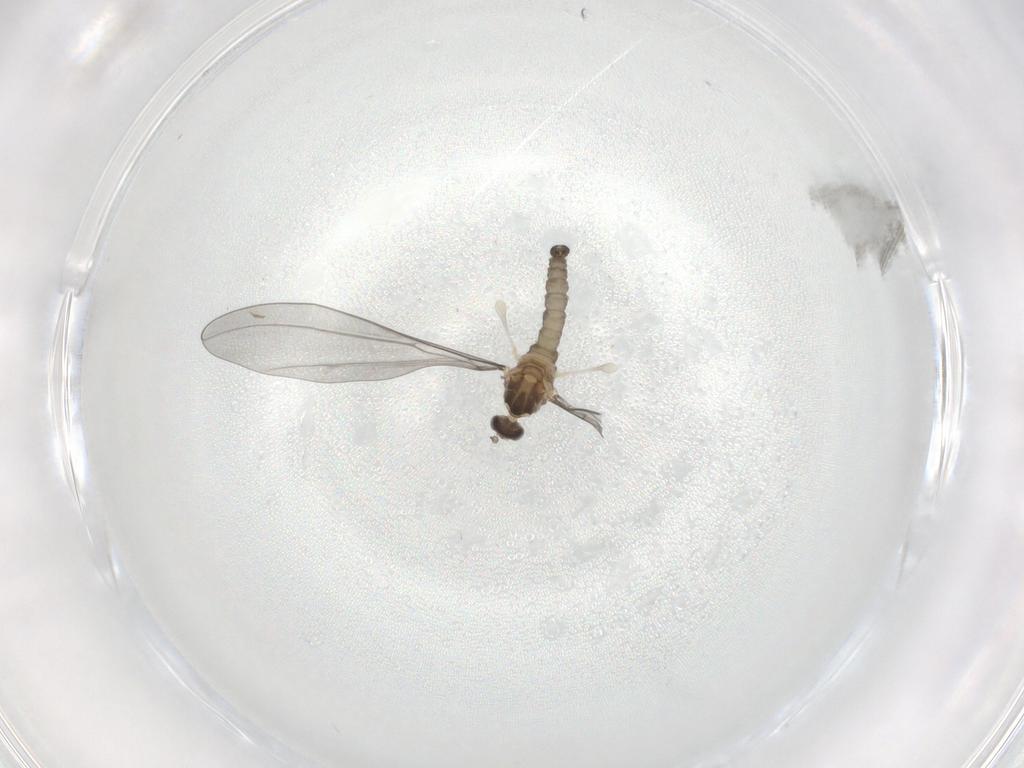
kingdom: Animalia
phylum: Arthropoda
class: Insecta
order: Diptera
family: Cecidomyiidae
